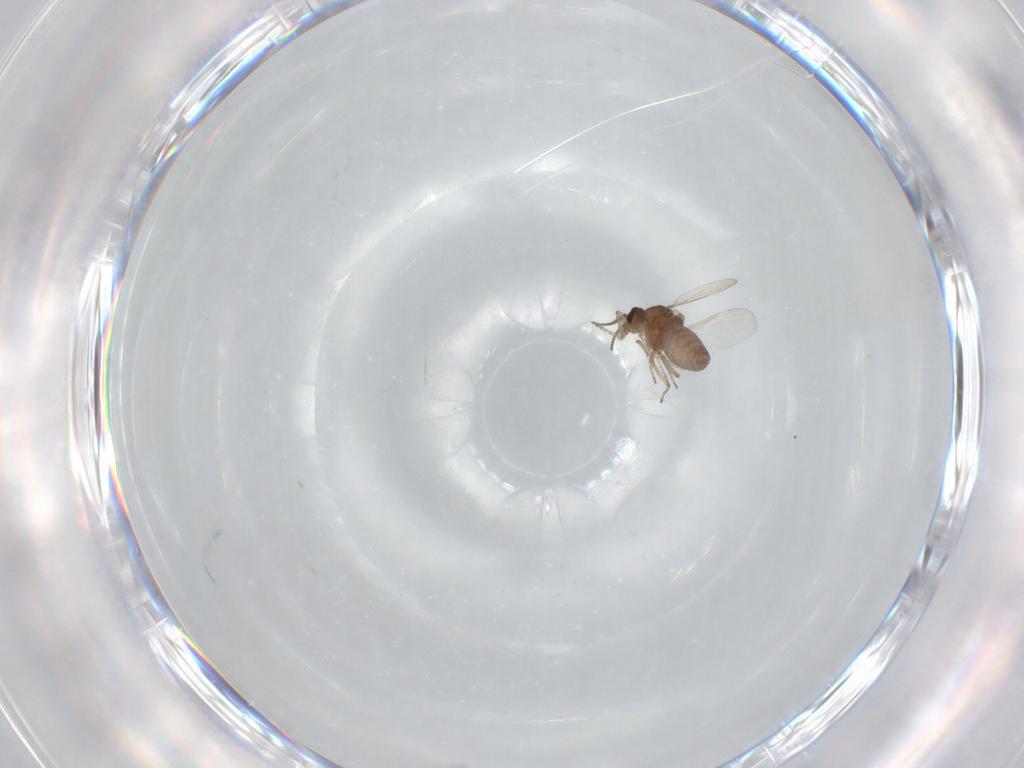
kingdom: Animalia
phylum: Arthropoda
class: Insecta
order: Diptera
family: Ceratopogonidae
